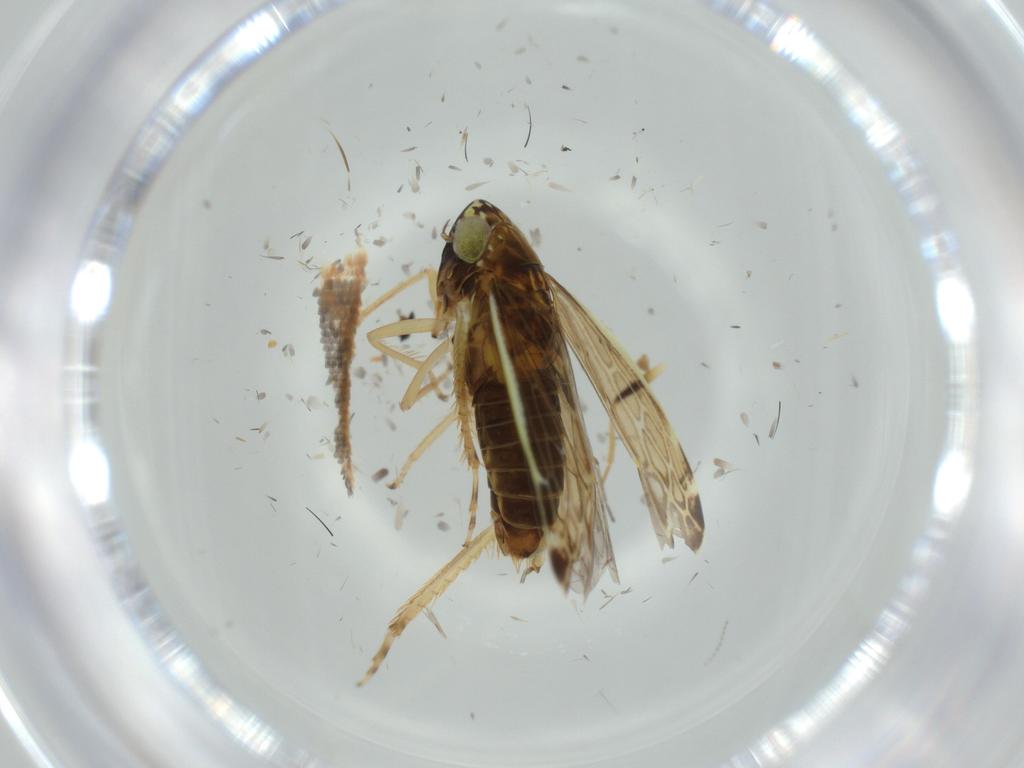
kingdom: Animalia
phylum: Arthropoda
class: Insecta
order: Hemiptera
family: Cicadellidae
